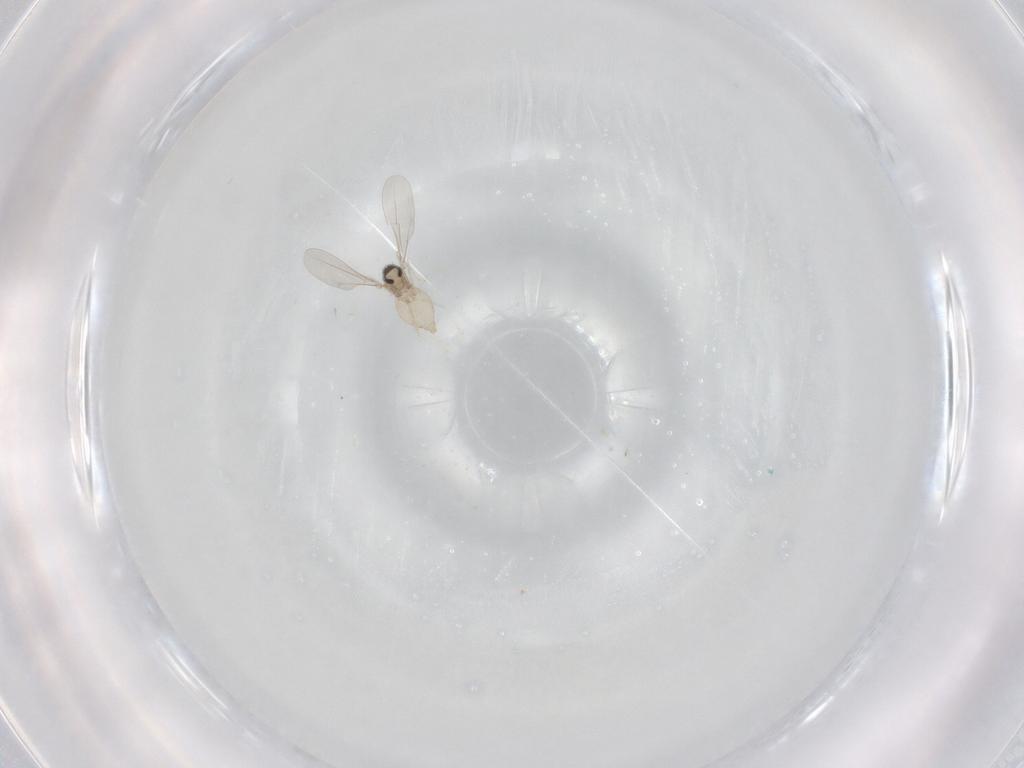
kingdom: Animalia
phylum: Arthropoda
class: Insecta
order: Diptera
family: Cecidomyiidae
